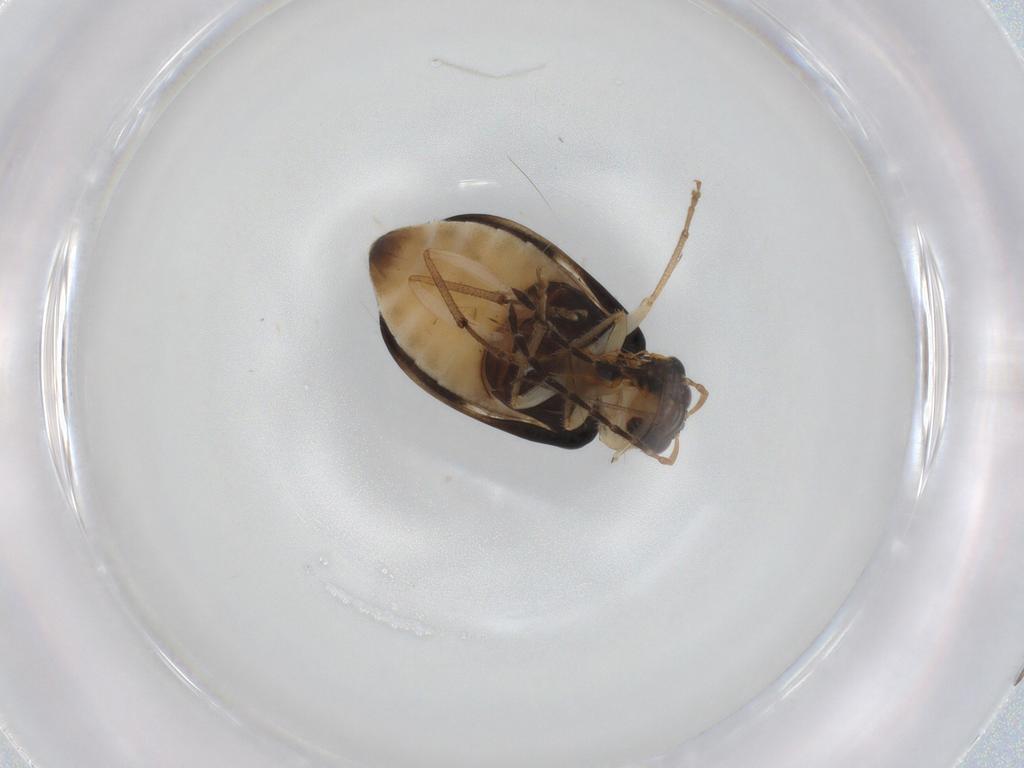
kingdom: Animalia
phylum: Arthropoda
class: Insecta
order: Coleoptera
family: Chrysomelidae
